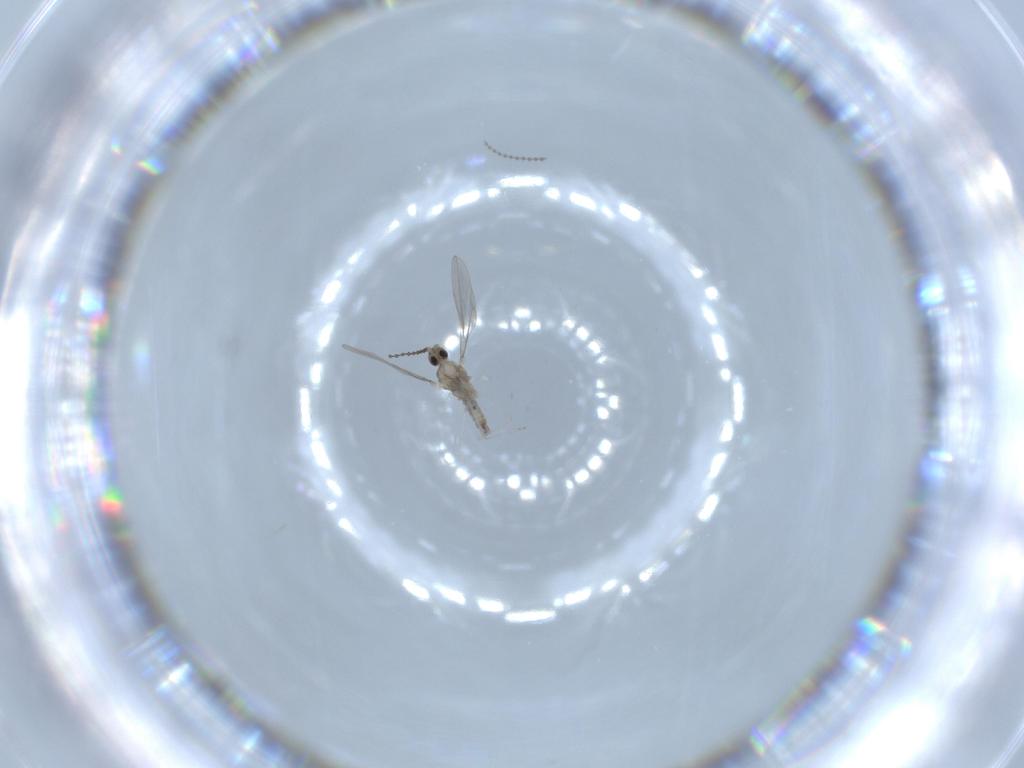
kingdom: Animalia
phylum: Arthropoda
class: Insecta
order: Diptera
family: Cecidomyiidae
